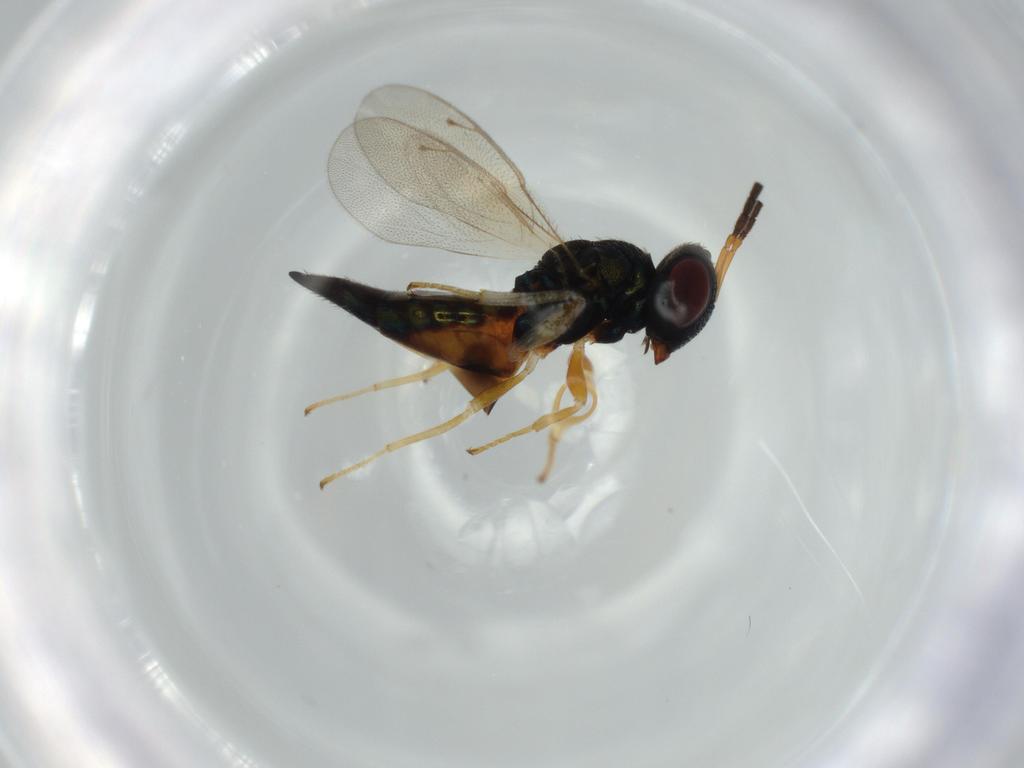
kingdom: Animalia
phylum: Arthropoda
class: Insecta
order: Hymenoptera
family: Pteromalidae
